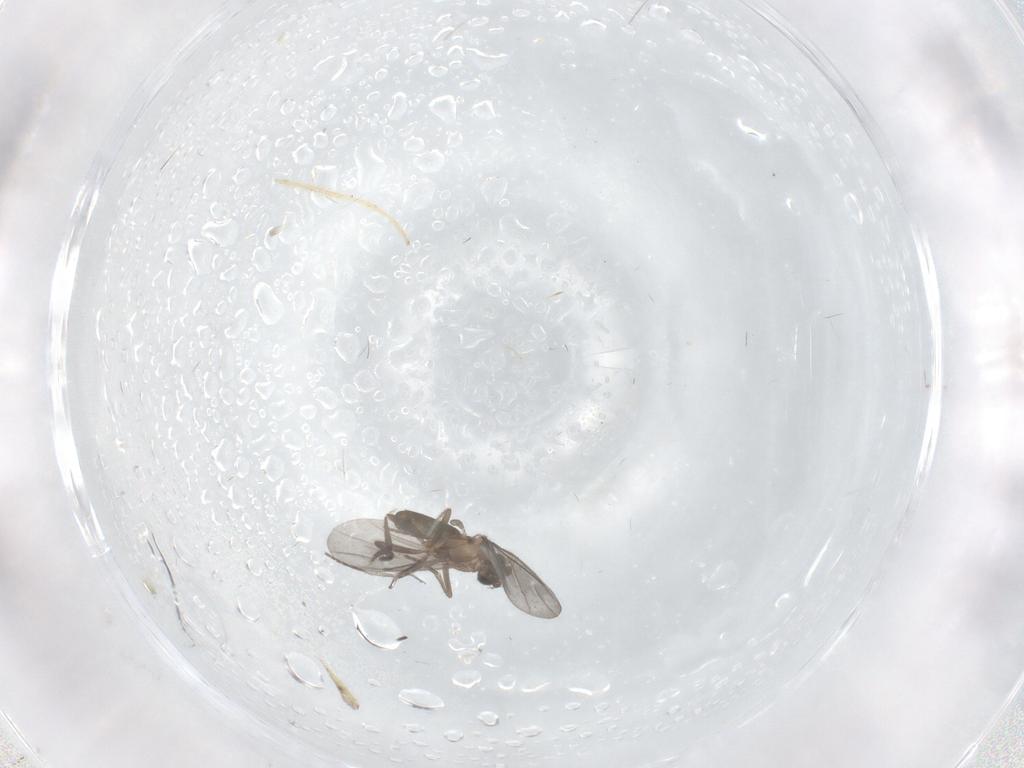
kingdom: Animalia
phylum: Arthropoda
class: Insecta
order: Diptera
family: Phoridae
